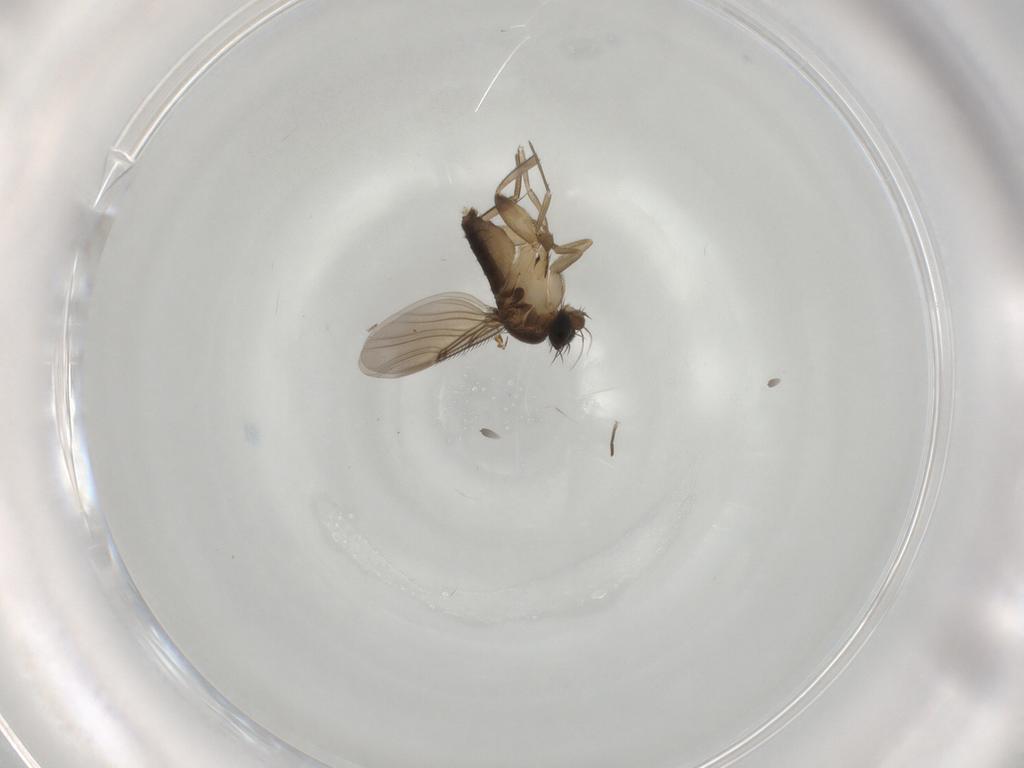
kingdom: Animalia
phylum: Arthropoda
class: Insecta
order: Diptera
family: Phoridae
